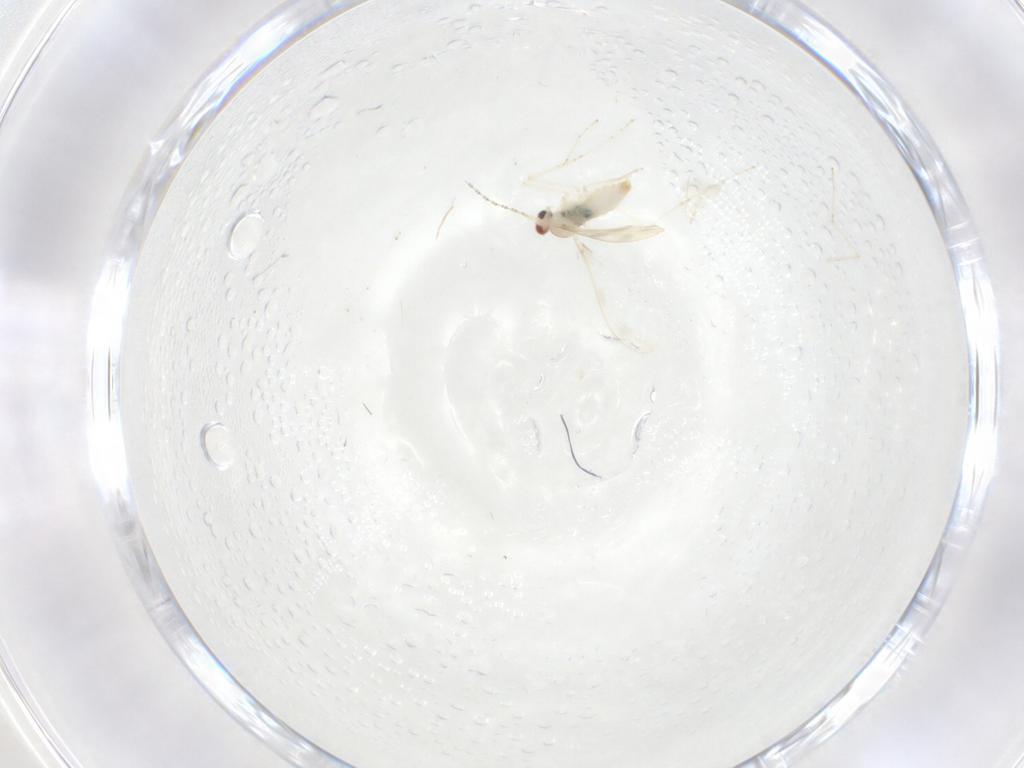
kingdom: Animalia
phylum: Arthropoda
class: Insecta
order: Diptera
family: Cecidomyiidae
